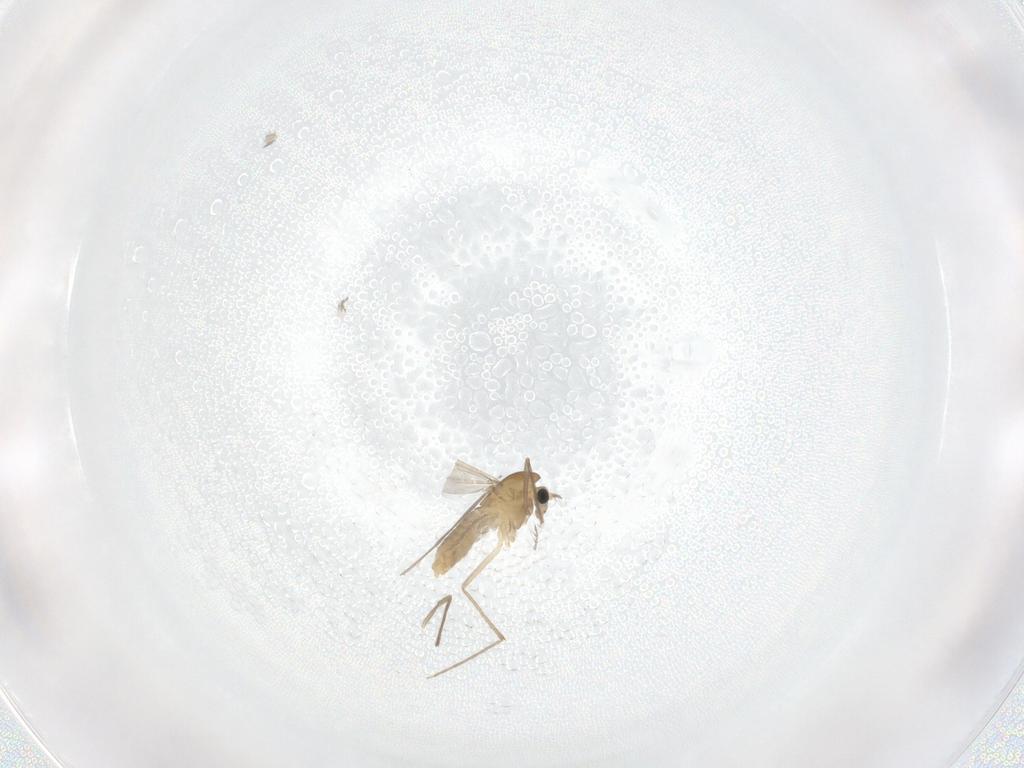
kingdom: Animalia
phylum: Arthropoda
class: Insecta
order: Diptera
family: Chironomidae
